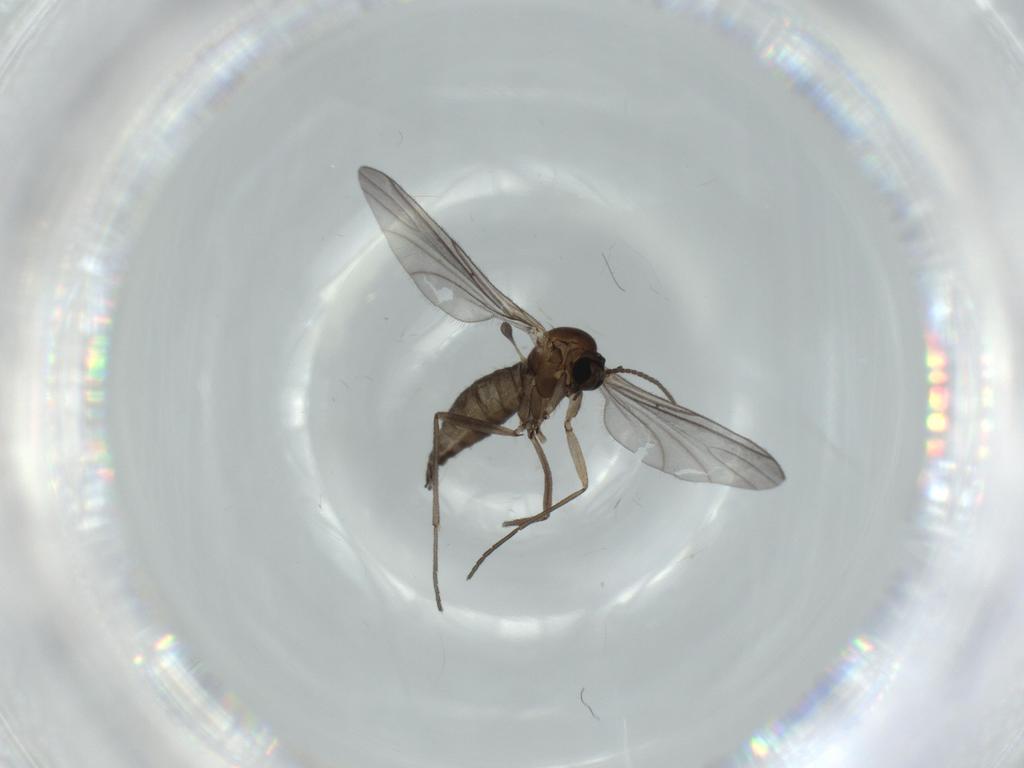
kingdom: Animalia
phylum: Arthropoda
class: Insecta
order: Diptera
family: Sciaridae
